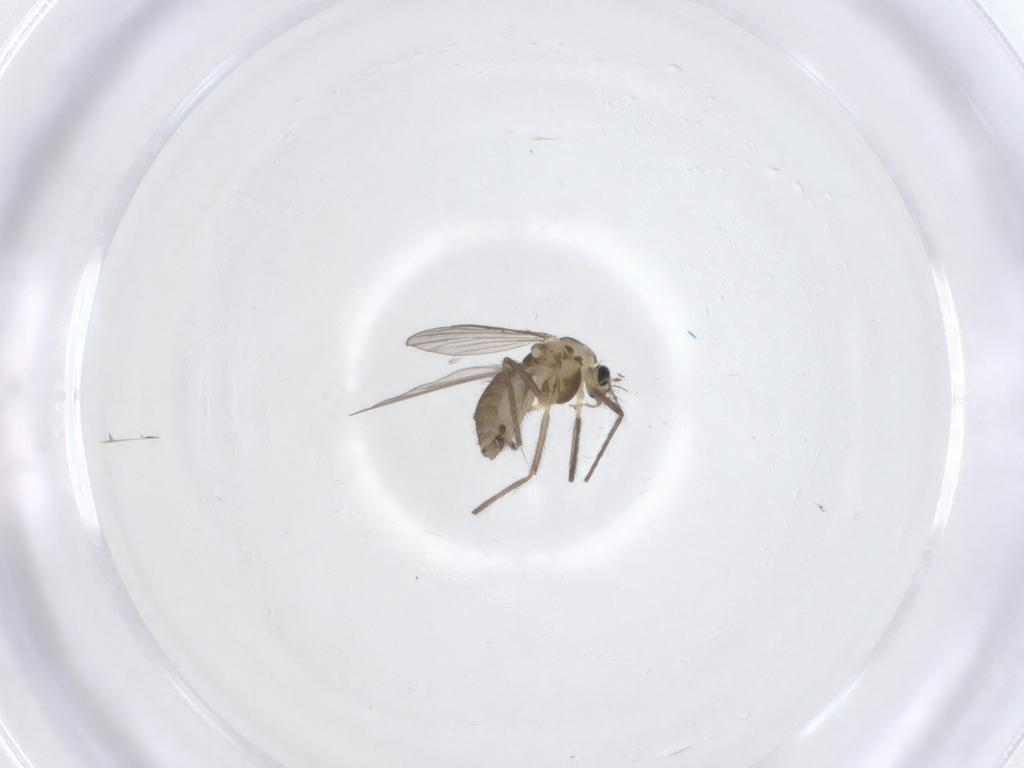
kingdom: Animalia
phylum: Arthropoda
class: Insecta
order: Diptera
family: Chironomidae
